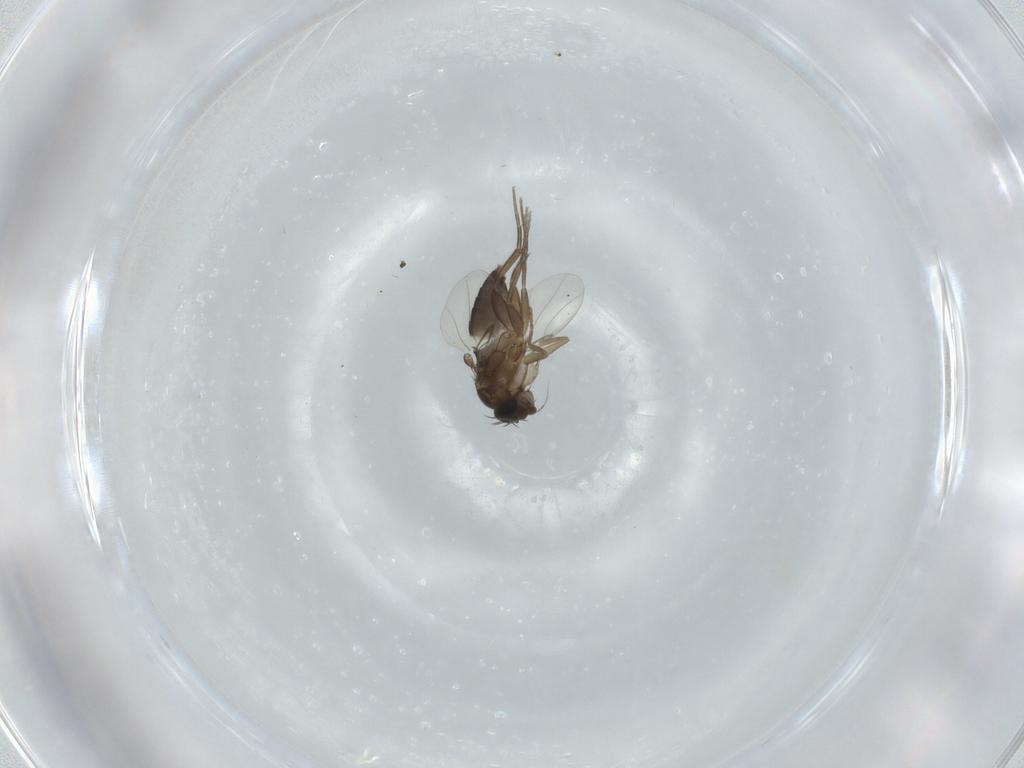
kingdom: Animalia
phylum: Arthropoda
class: Insecta
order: Diptera
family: Phoridae
